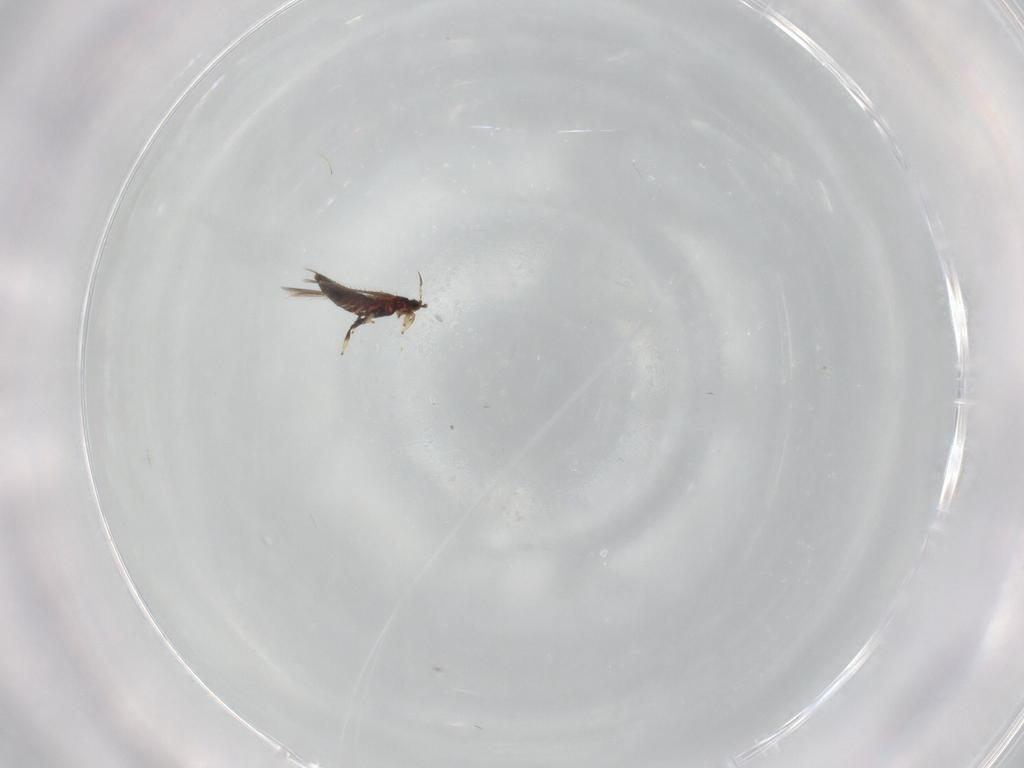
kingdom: Animalia
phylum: Arthropoda
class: Insecta
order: Thysanoptera
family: Thripidae
